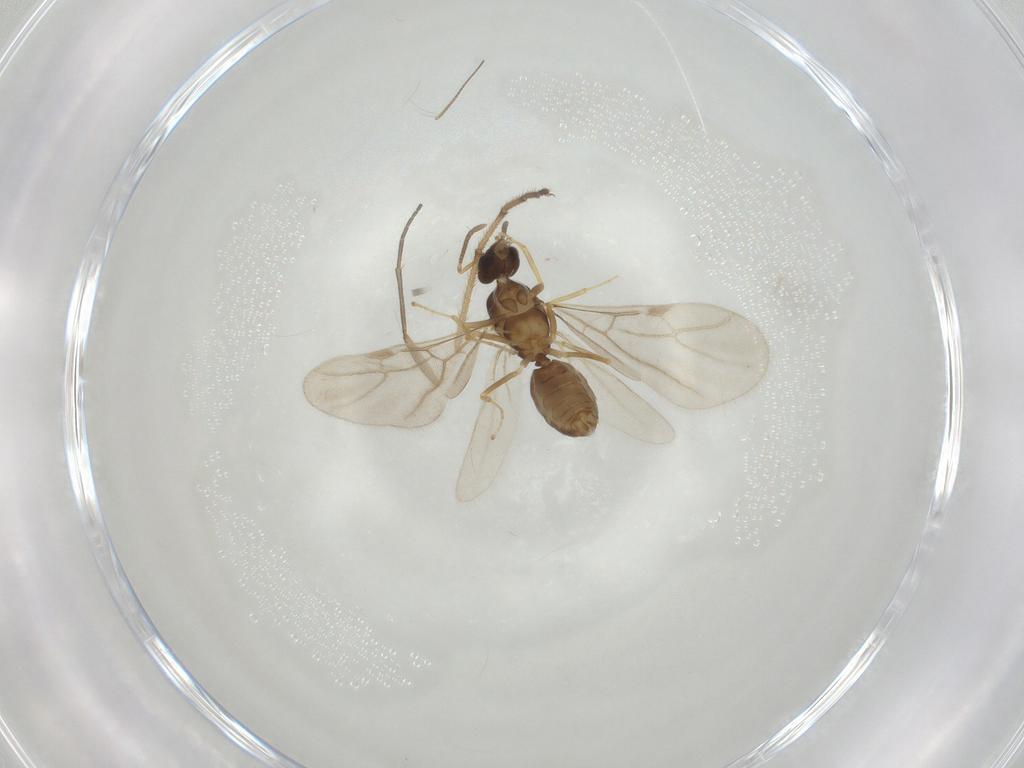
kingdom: Animalia
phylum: Arthropoda
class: Insecta
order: Hymenoptera
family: Formicidae
